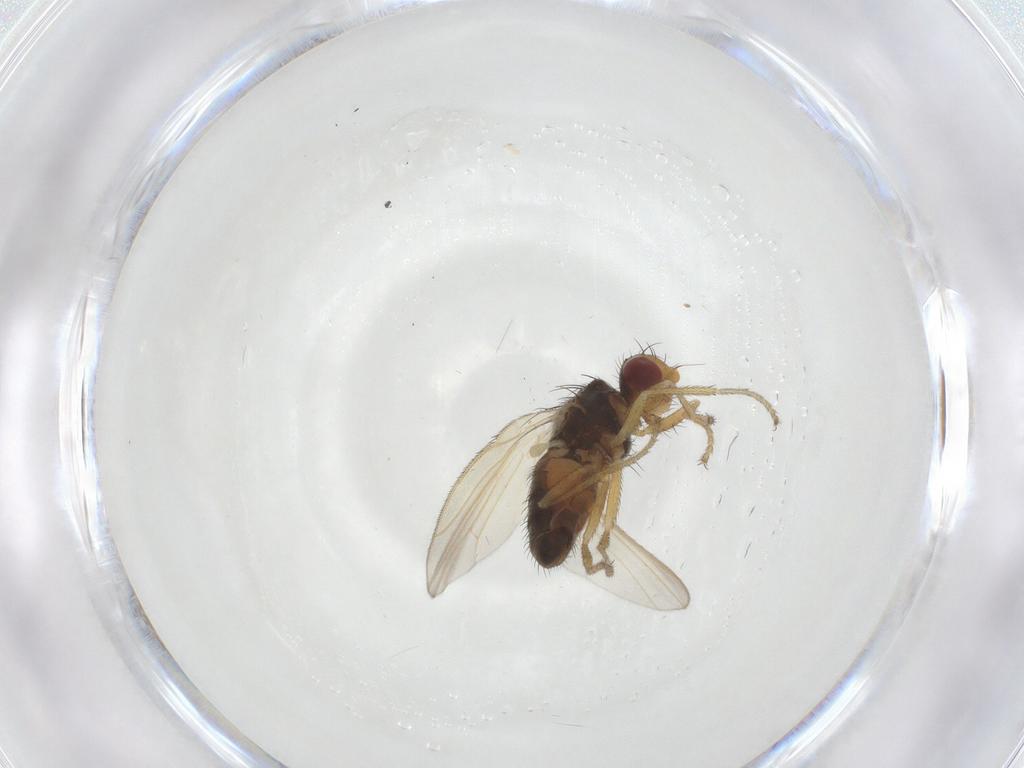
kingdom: Animalia
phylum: Arthropoda
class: Insecta
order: Diptera
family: Heleomyzidae
